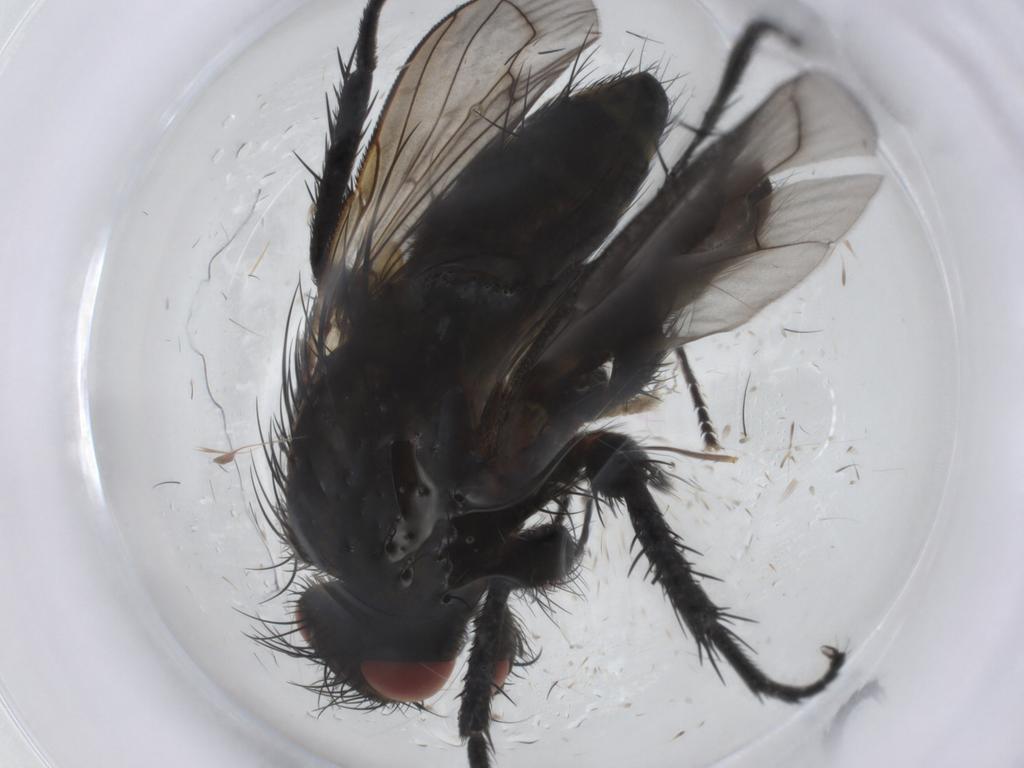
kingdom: Animalia
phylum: Arthropoda
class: Insecta
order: Diptera
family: Tachinidae
